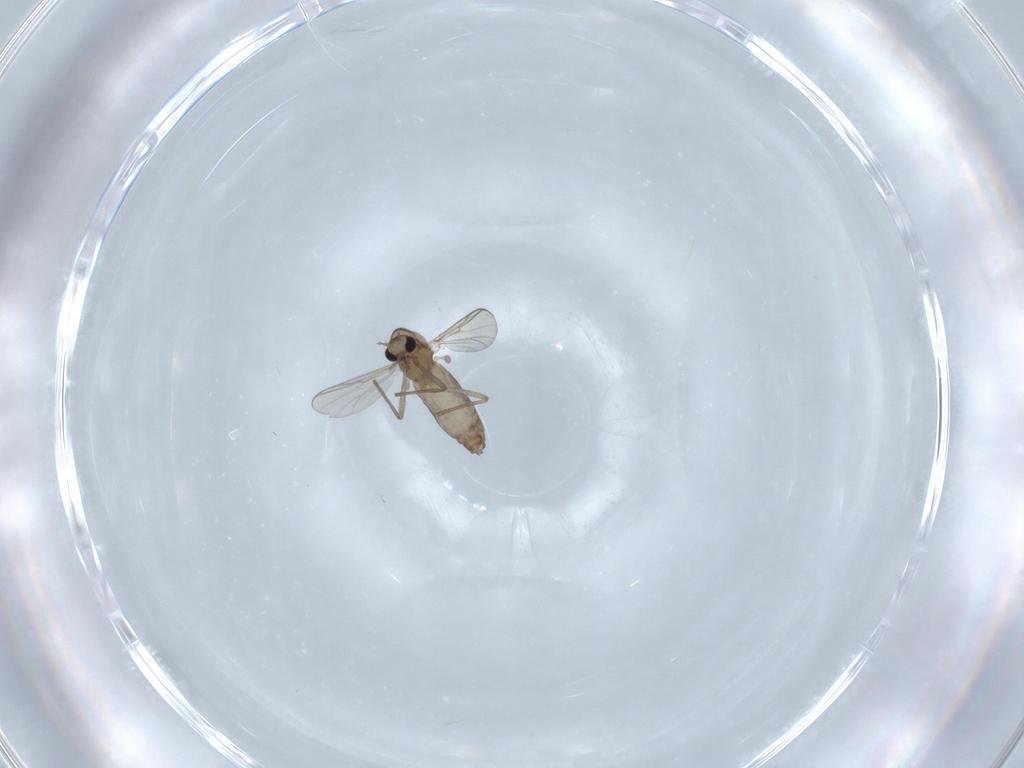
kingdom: Animalia
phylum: Arthropoda
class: Insecta
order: Diptera
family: Chironomidae
